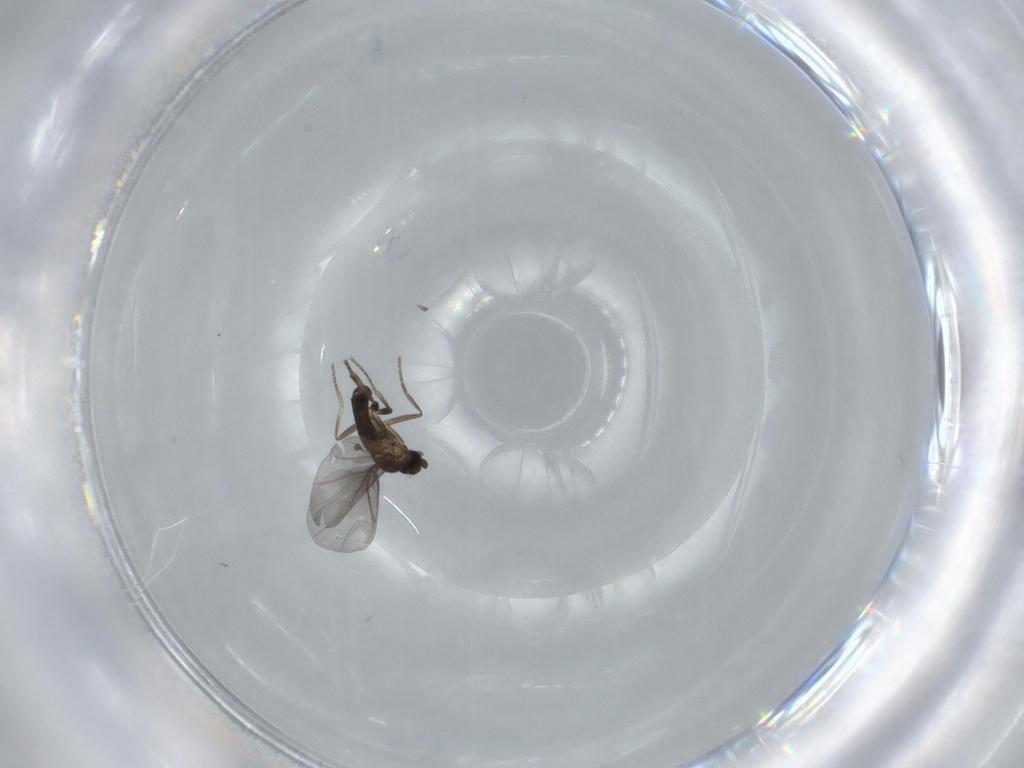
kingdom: Animalia
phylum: Arthropoda
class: Insecta
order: Diptera
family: Phoridae
